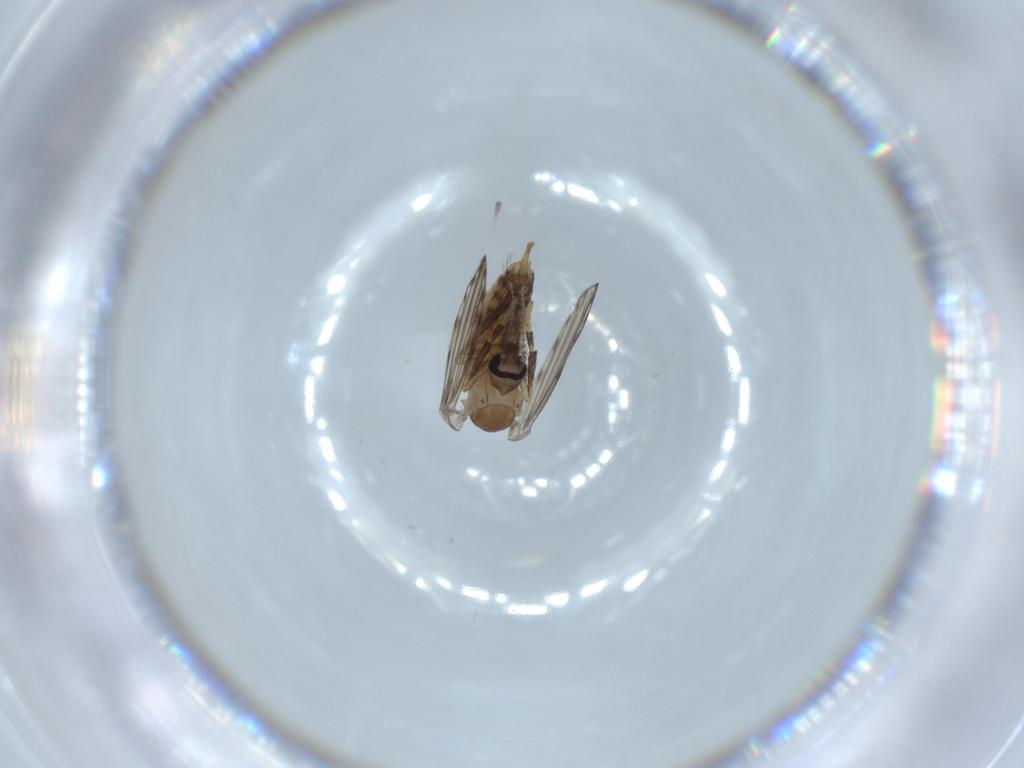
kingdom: Animalia
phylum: Arthropoda
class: Insecta
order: Diptera
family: Psychodidae
